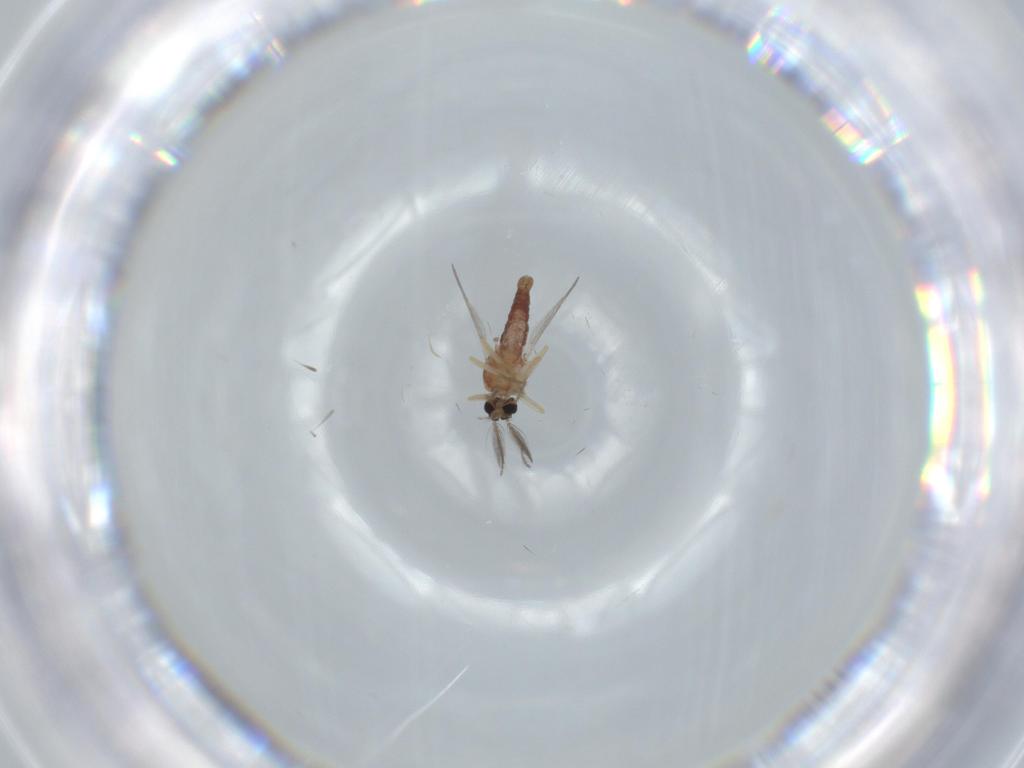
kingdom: Animalia
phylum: Arthropoda
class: Insecta
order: Diptera
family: Ceratopogonidae
